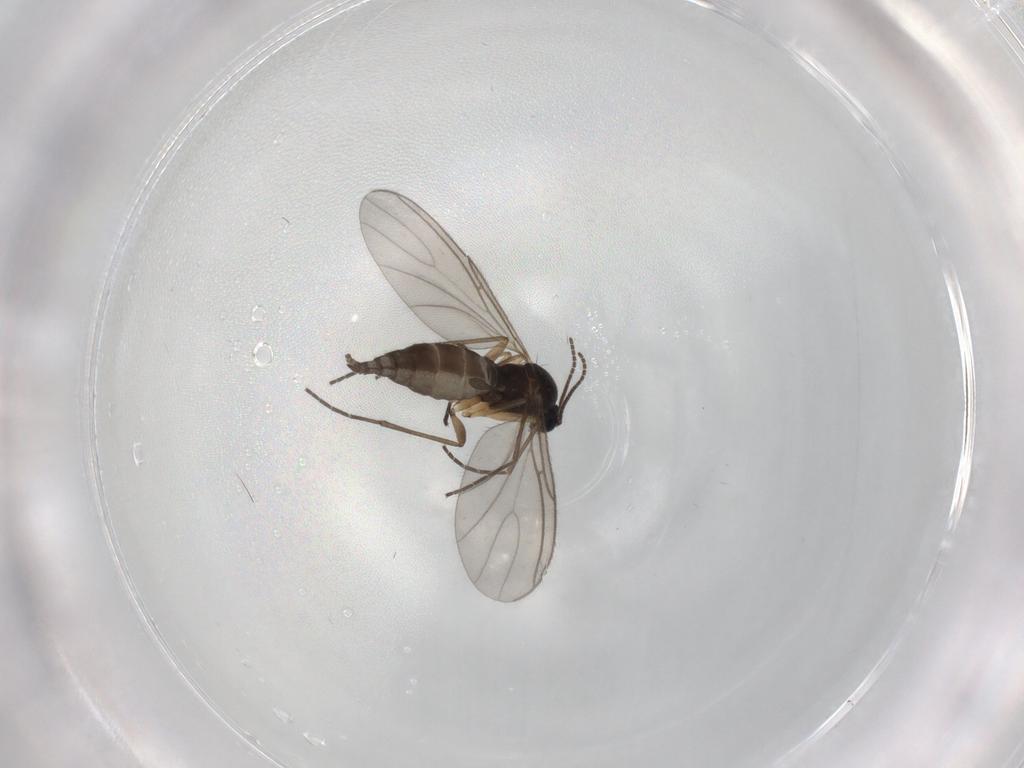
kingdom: Animalia
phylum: Arthropoda
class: Insecta
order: Diptera
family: Sciaridae
